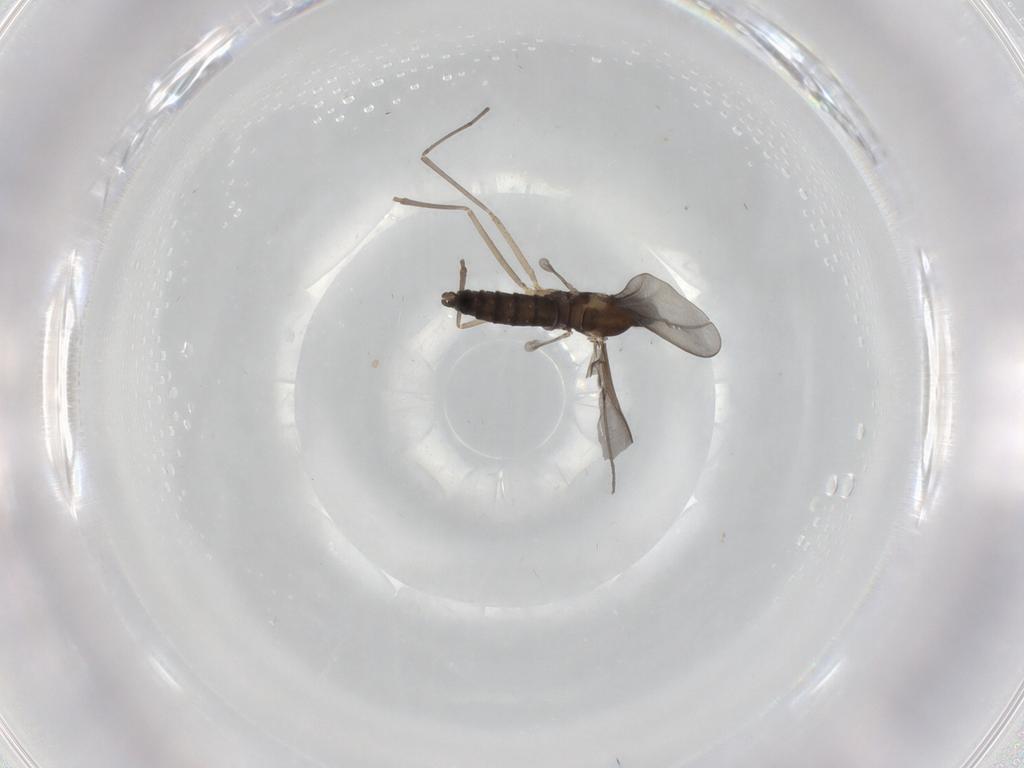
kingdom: Animalia
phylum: Arthropoda
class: Insecta
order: Diptera
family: Cecidomyiidae
